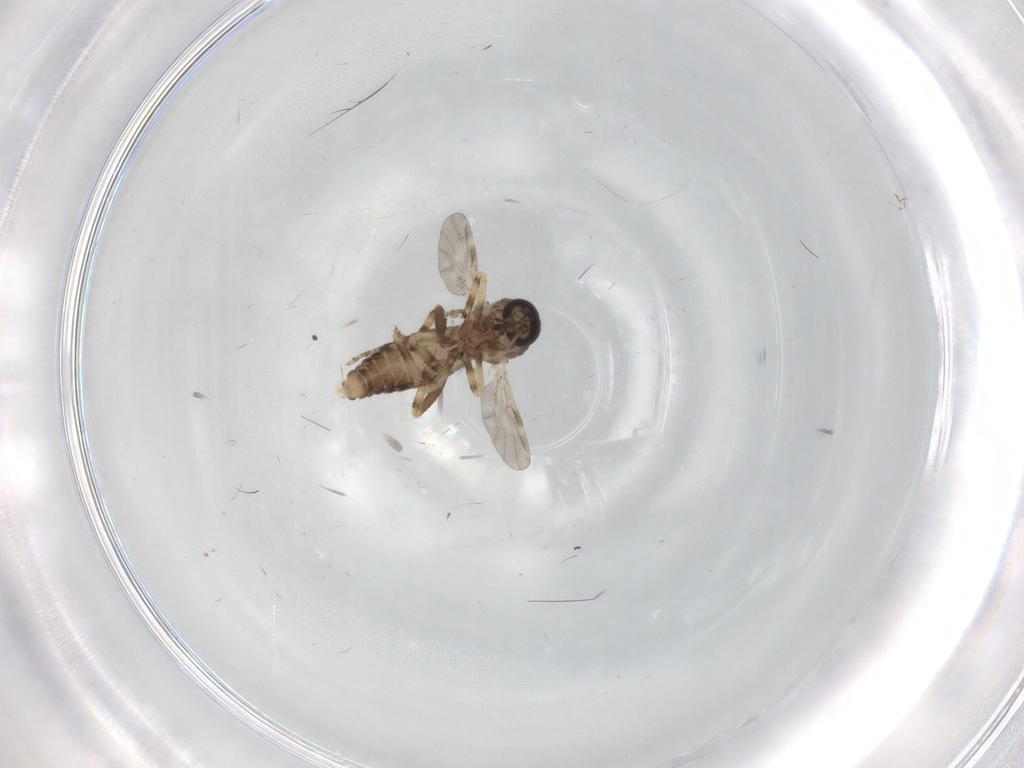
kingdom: Animalia
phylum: Arthropoda
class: Insecta
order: Diptera
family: Ceratopogonidae
